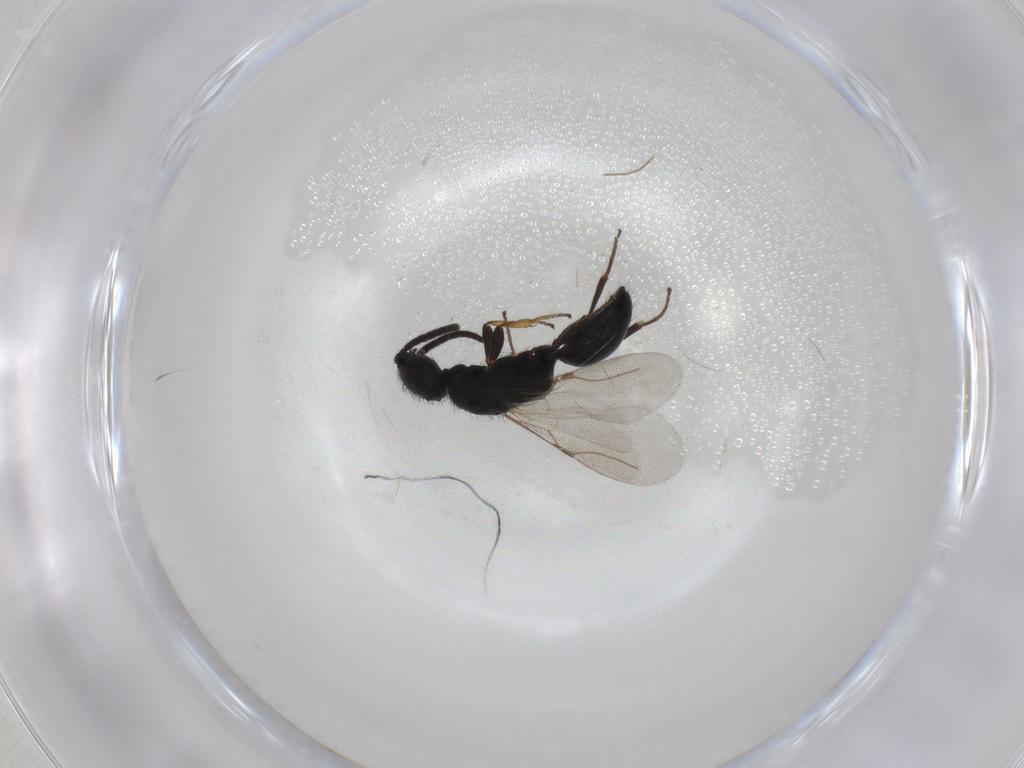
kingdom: Animalia
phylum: Arthropoda
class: Insecta
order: Hymenoptera
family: Bethylidae
